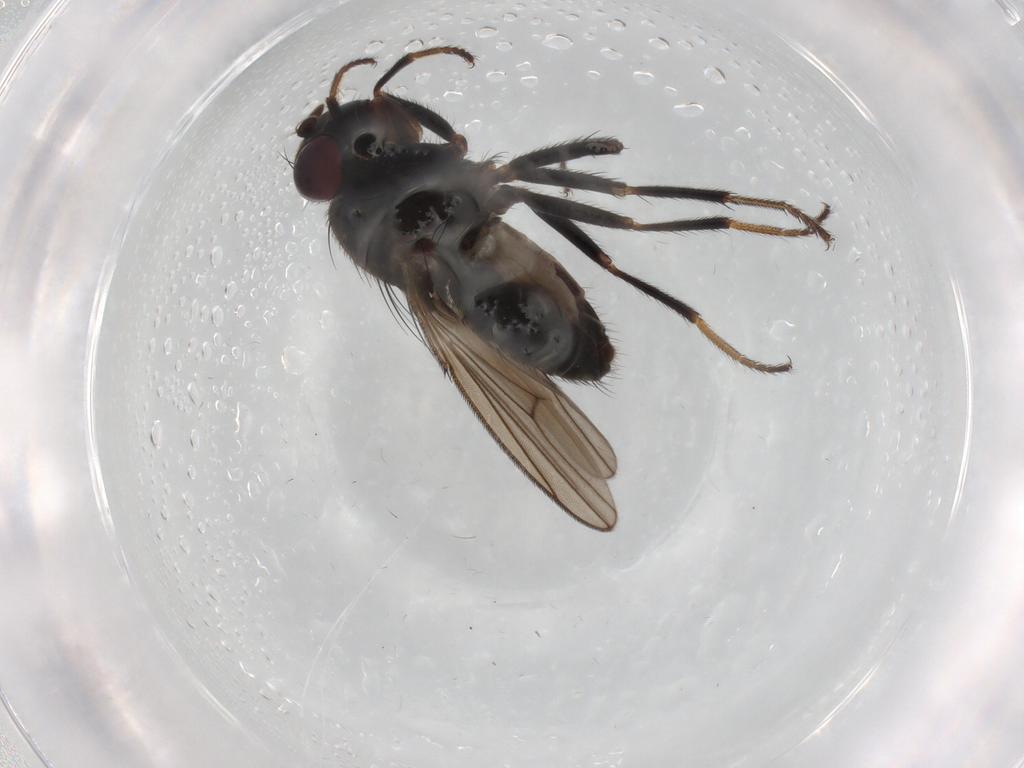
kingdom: Animalia
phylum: Arthropoda
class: Insecta
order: Diptera
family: Ephydridae
